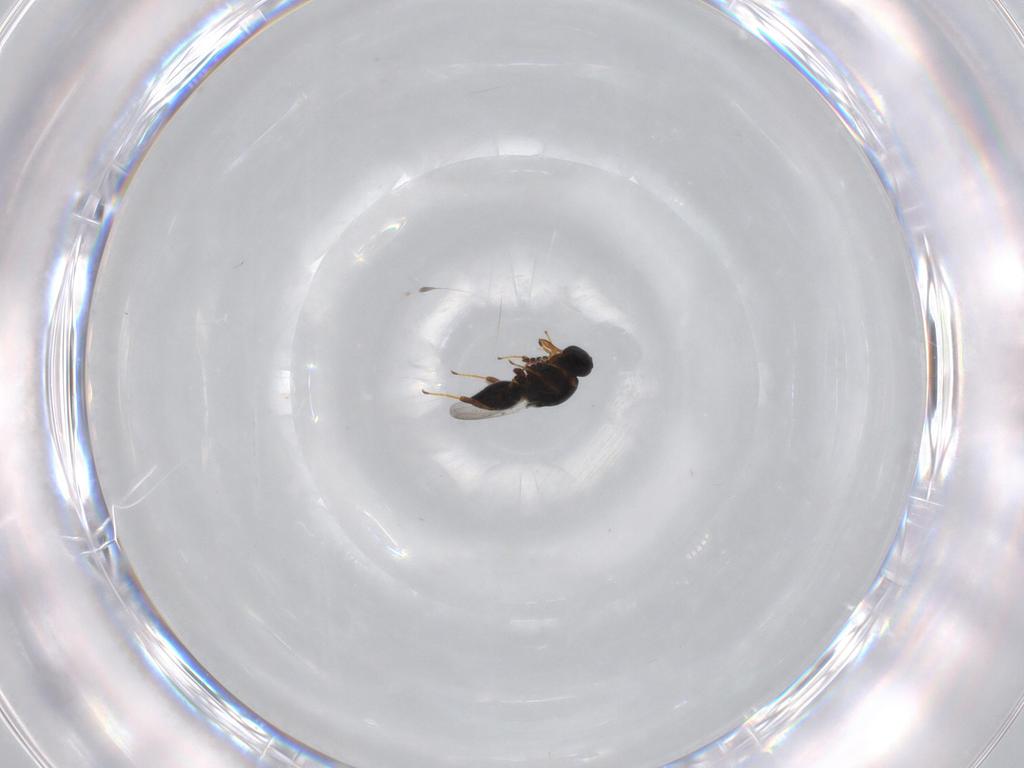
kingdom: Animalia
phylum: Arthropoda
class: Insecta
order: Hymenoptera
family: Platygastridae
